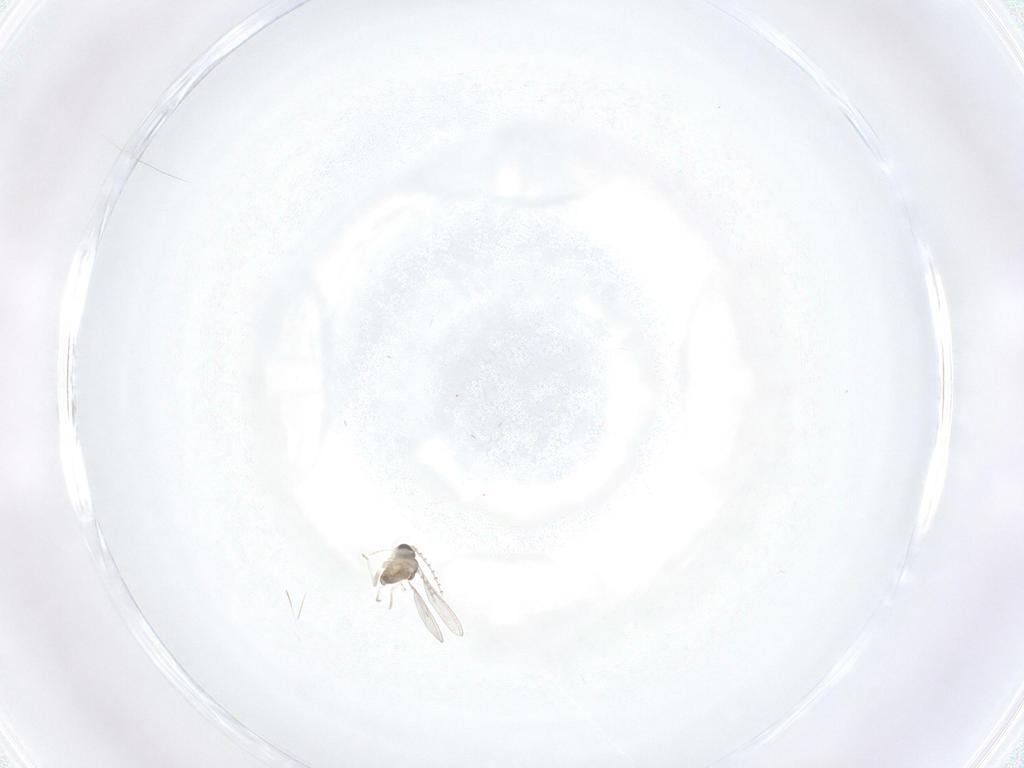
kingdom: Animalia
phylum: Arthropoda
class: Insecta
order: Diptera
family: Cecidomyiidae
